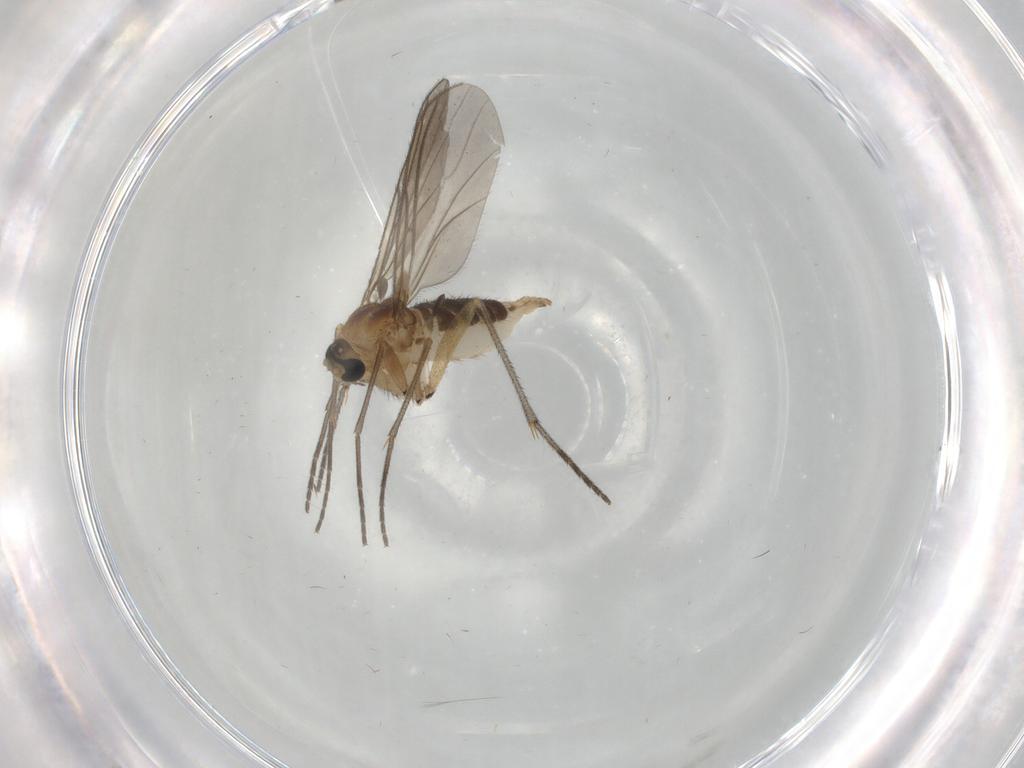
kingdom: Animalia
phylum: Arthropoda
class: Insecta
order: Diptera
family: Sciaridae
